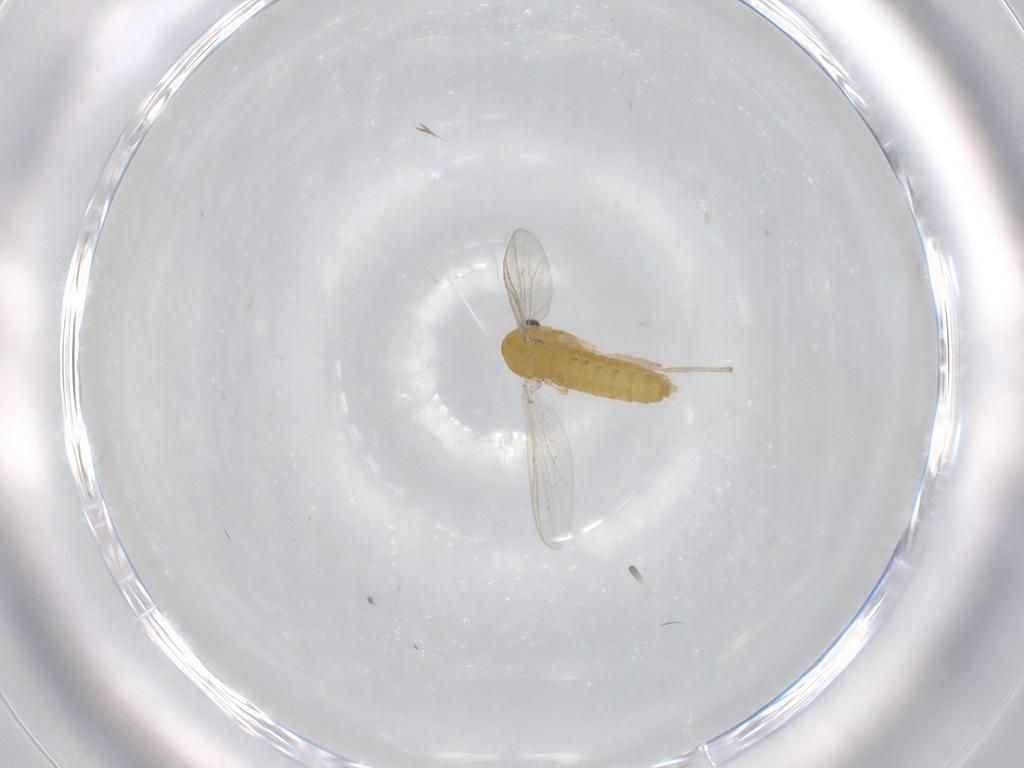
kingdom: Animalia
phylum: Arthropoda
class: Insecta
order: Diptera
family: Chironomidae
